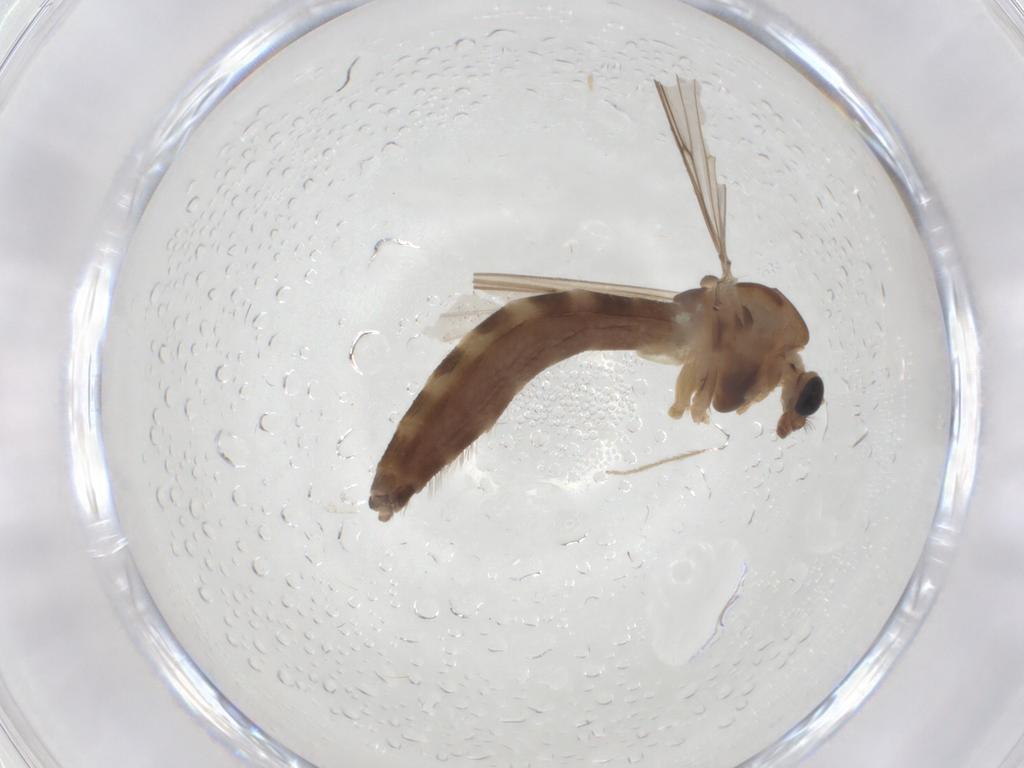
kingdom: Animalia
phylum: Arthropoda
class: Insecta
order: Diptera
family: Chironomidae
